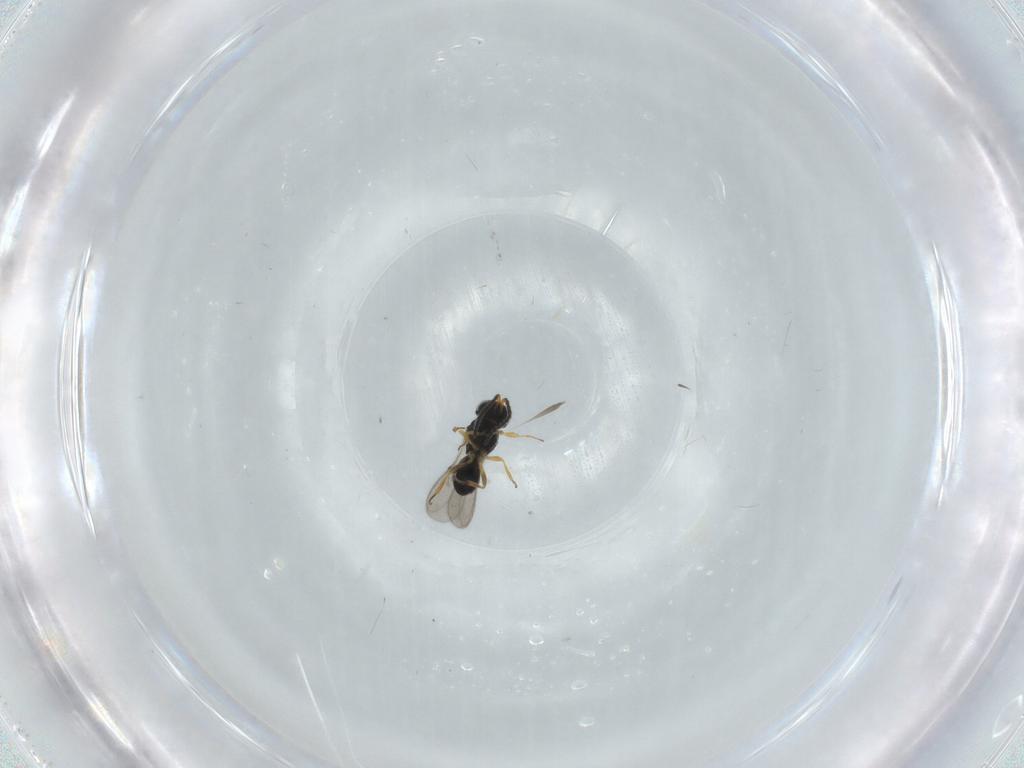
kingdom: Animalia
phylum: Arthropoda
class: Insecta
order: Hymenoptera
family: Scelionidae
